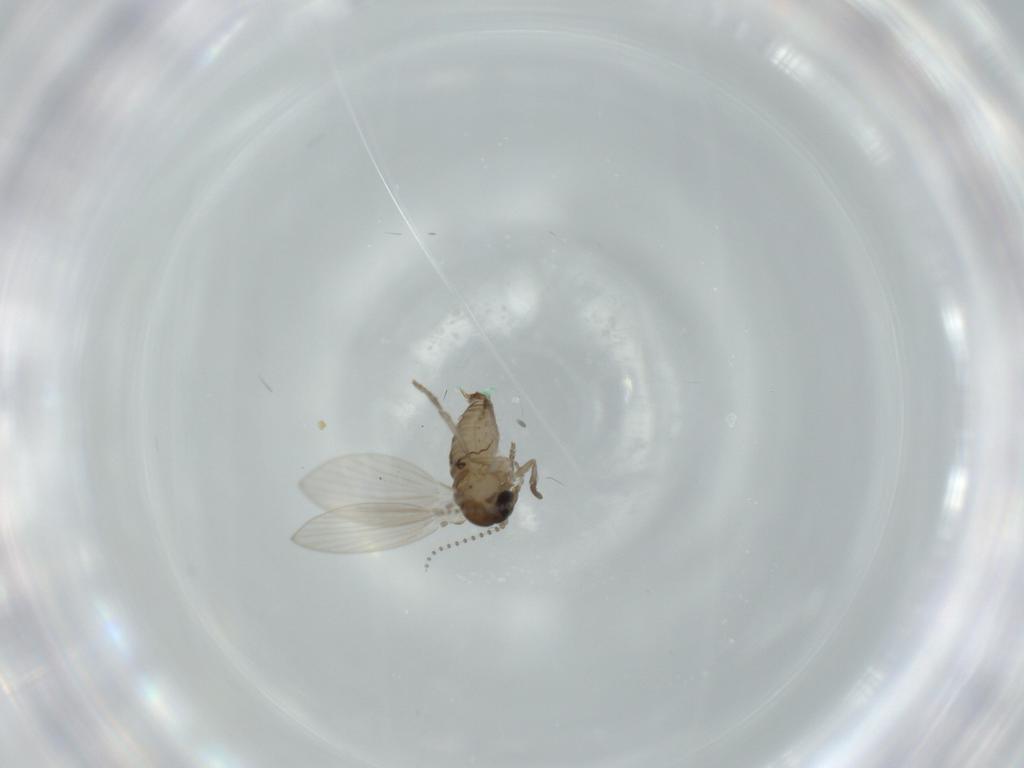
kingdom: Animalia
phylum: Arthropoda
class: Insecta
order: Diptera
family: Psychodidae
